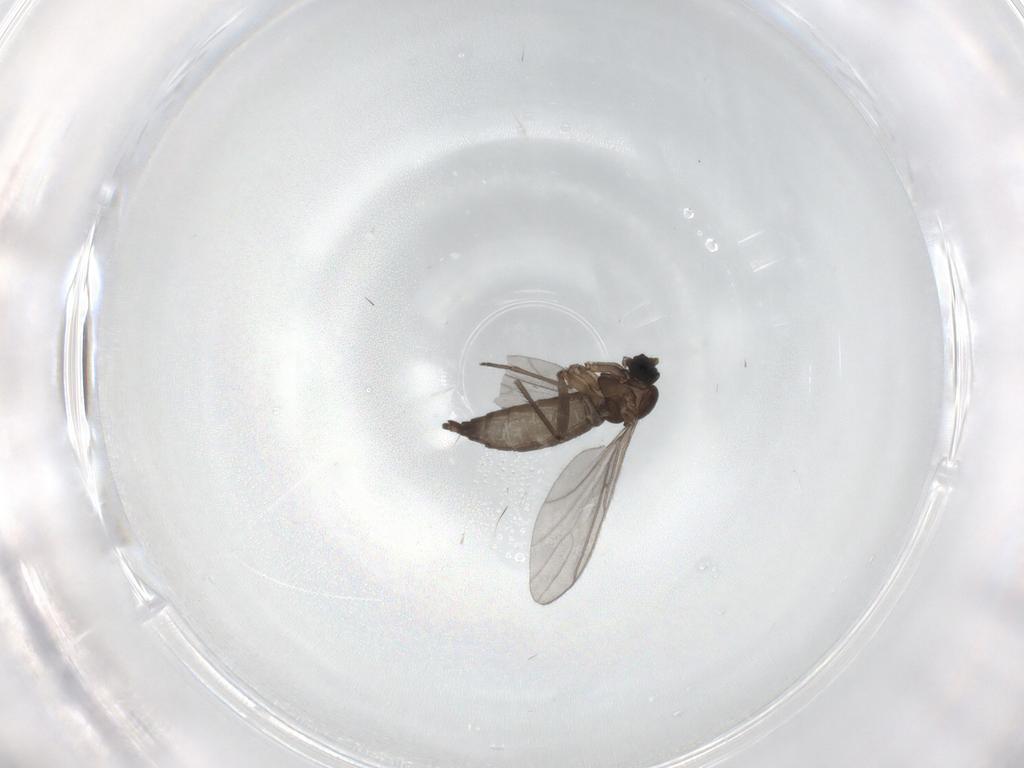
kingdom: Animalia
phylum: Arthropoda
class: Insecta
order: Diptera
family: Sciaridae
